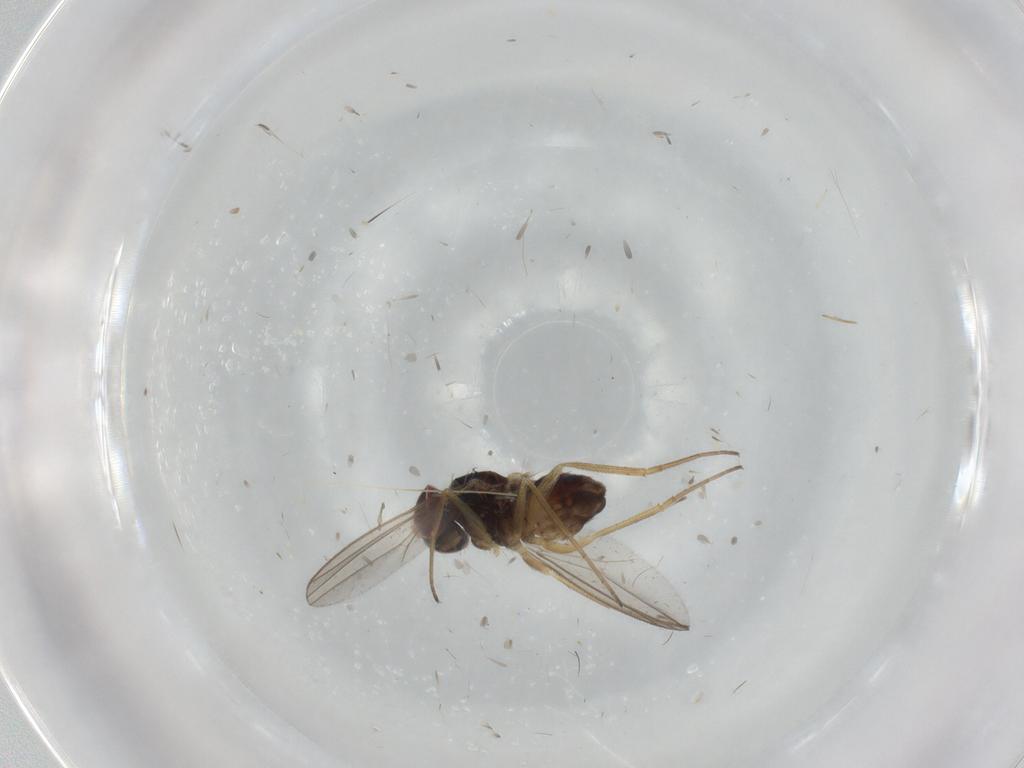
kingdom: Animalia
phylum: Arthropoda
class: Insecta
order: Diptera
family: Dolichopodidae
